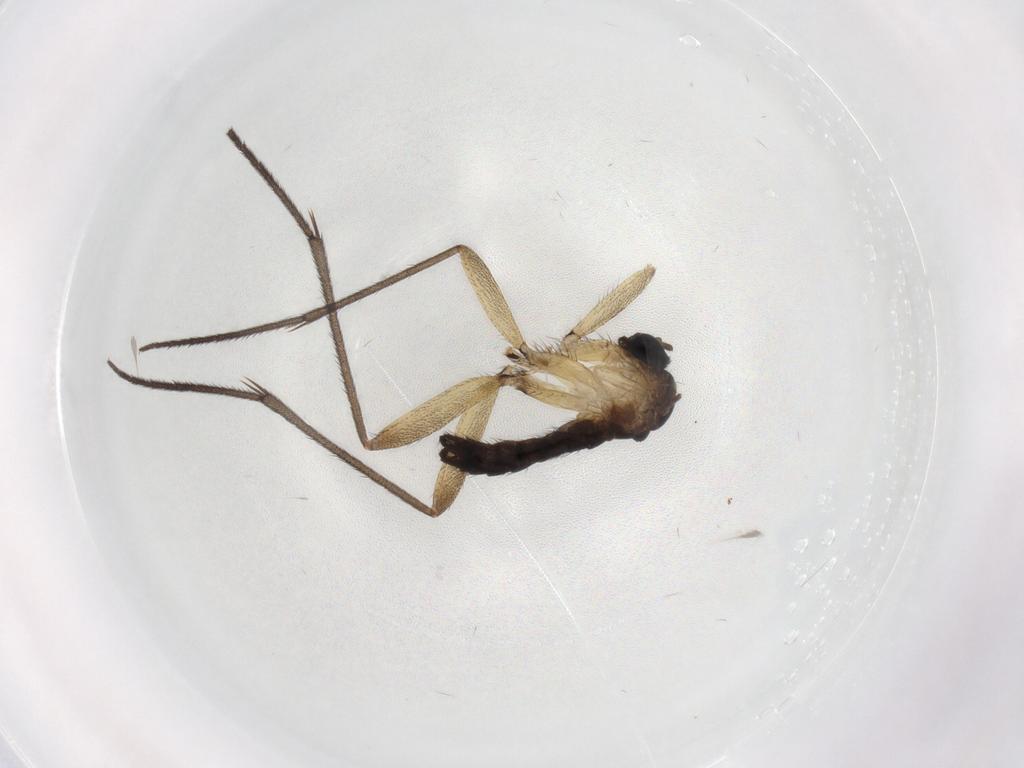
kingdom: Animalia
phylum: Arthropoda
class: Insecta
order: Diptera
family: Sciaridae
